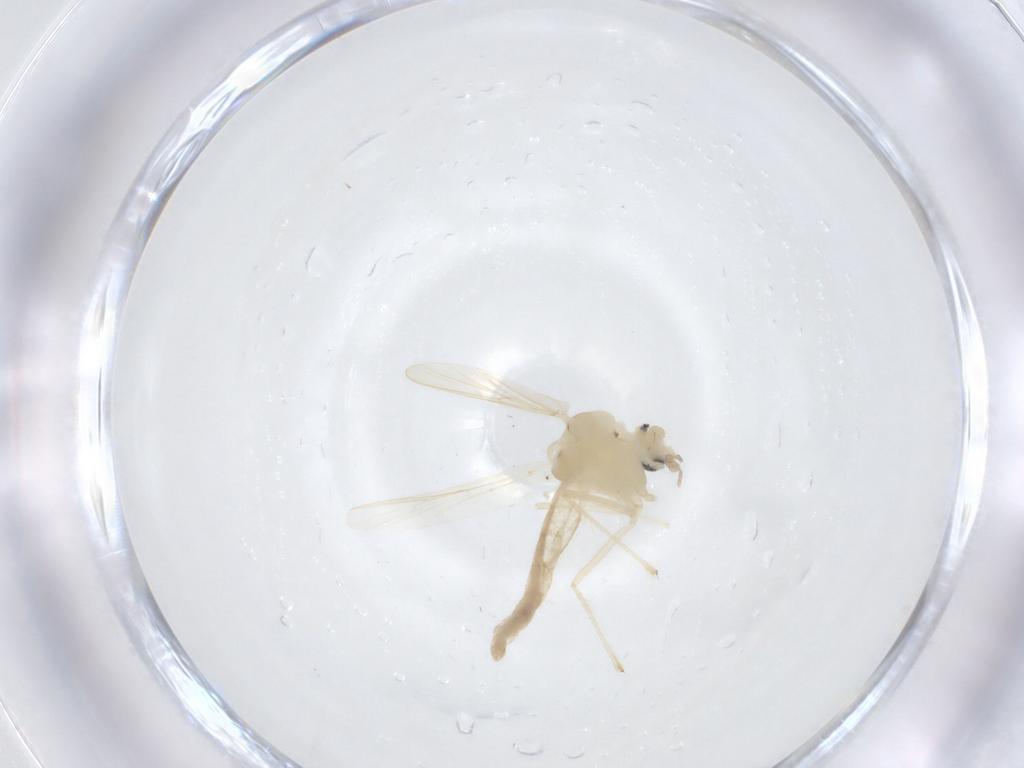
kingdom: Animalia
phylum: Arthropoda
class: Insecta
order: Diptera
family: Chironomidae
